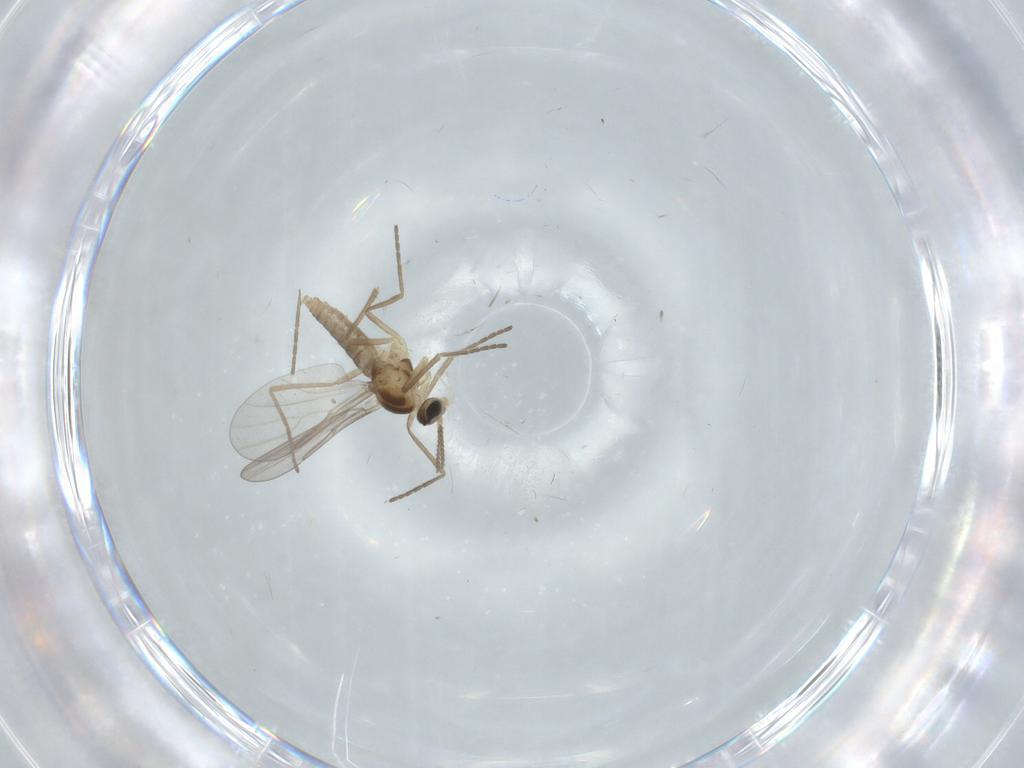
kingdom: Animalia
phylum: Arthropoda
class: Insecta
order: Diptera
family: Cecidomyiidae
